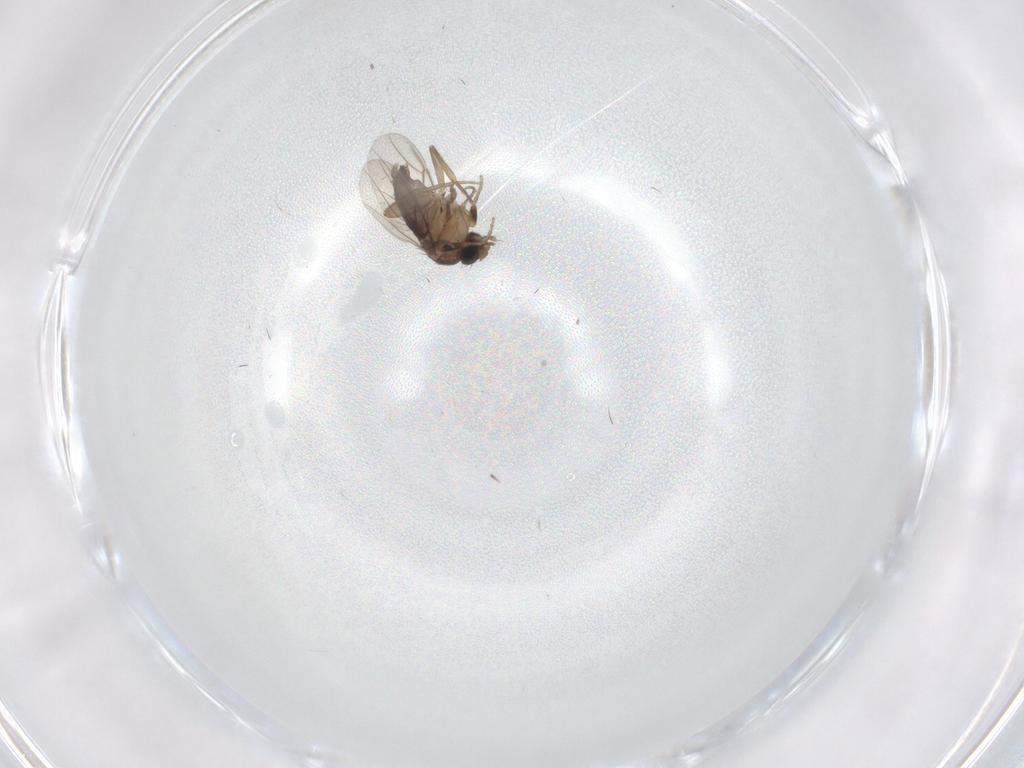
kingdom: Animalia
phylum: Arthropoda
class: Insecta
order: Diptera
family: Phoridae
